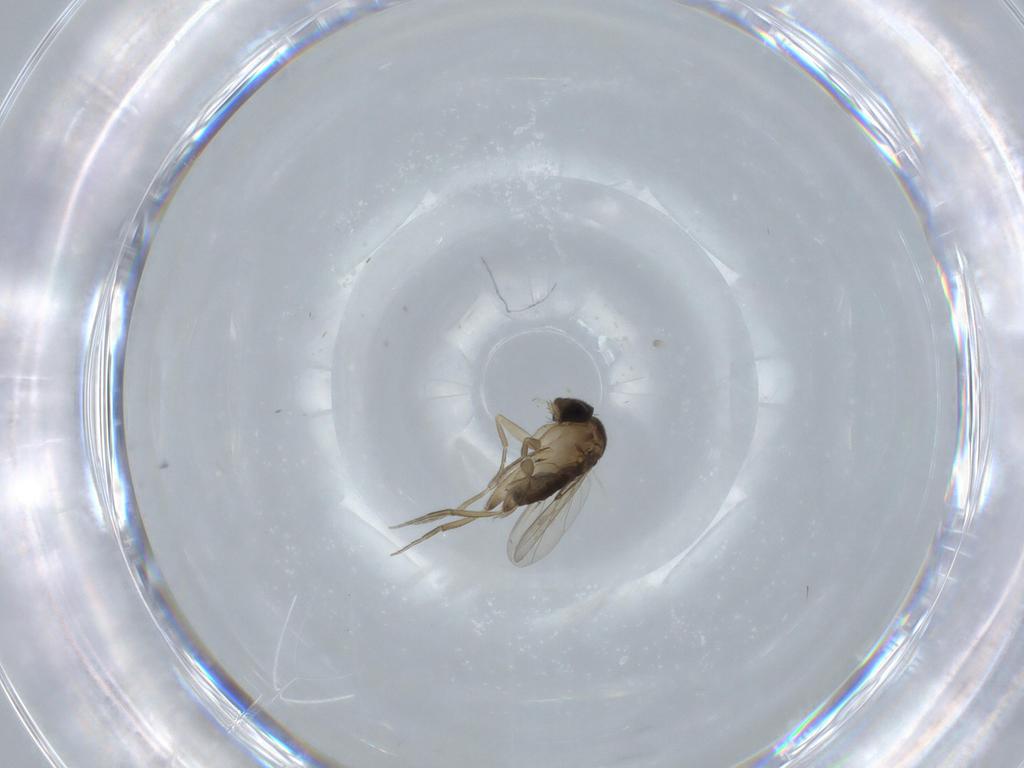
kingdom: Animalia
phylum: Arthropoda
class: Insecta
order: Diptera
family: Phoridae
